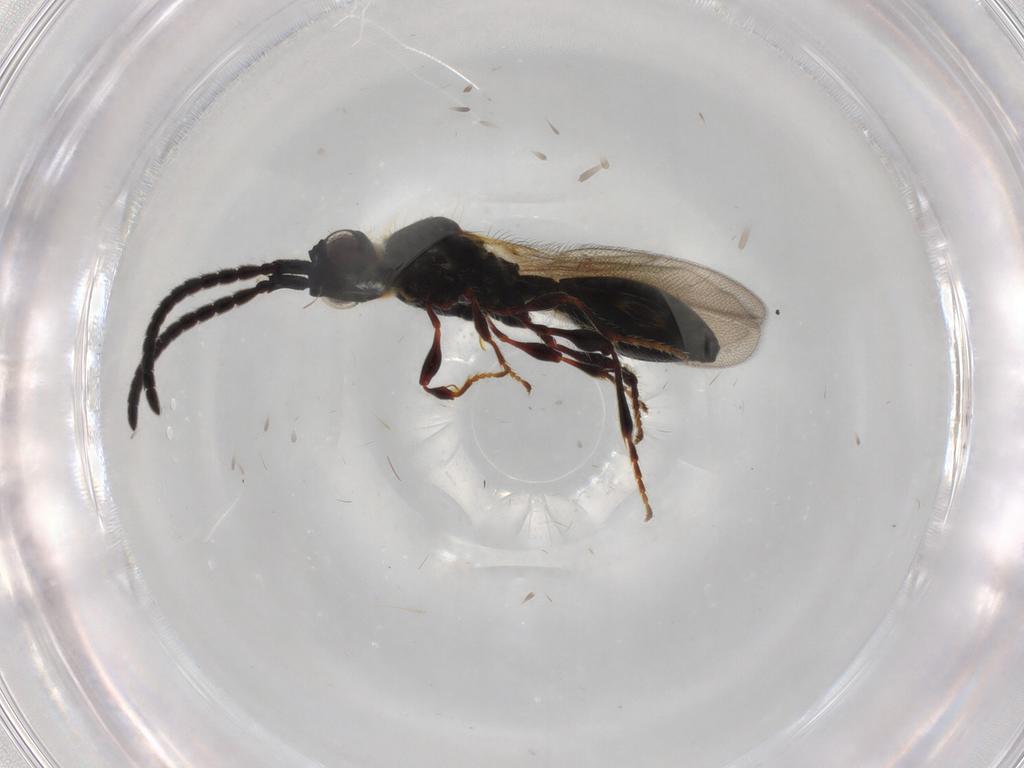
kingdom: Animalia
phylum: Arthropoda
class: Insecta
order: Hymenoptera
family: Diapriidae
